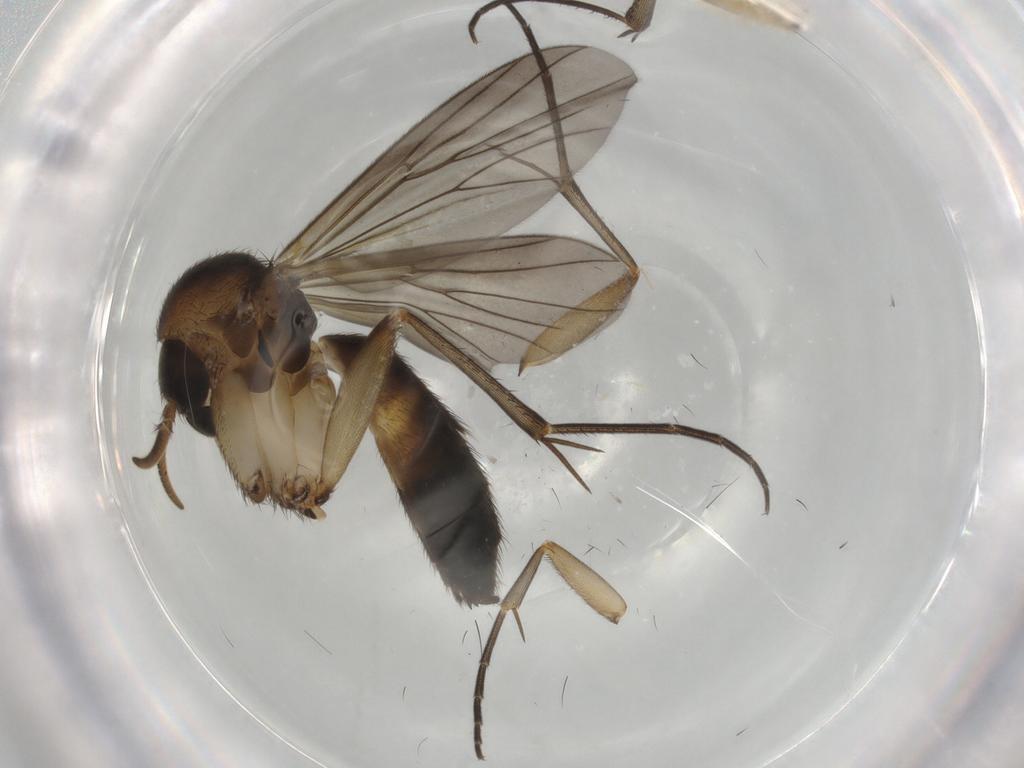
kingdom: Animalia
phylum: Arthropoda
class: Insecta
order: Diptera
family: Mycetophilidae
